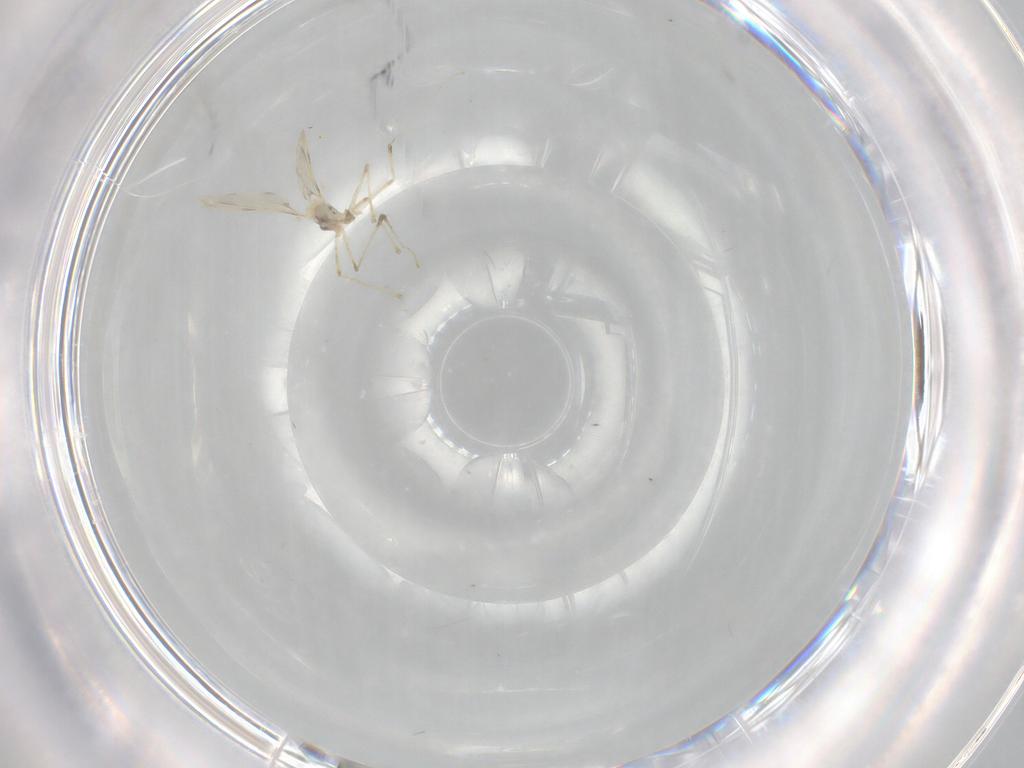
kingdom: Animalia
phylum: Arthropoda
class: Insecta
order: Diptera
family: Cecidomyiidae
